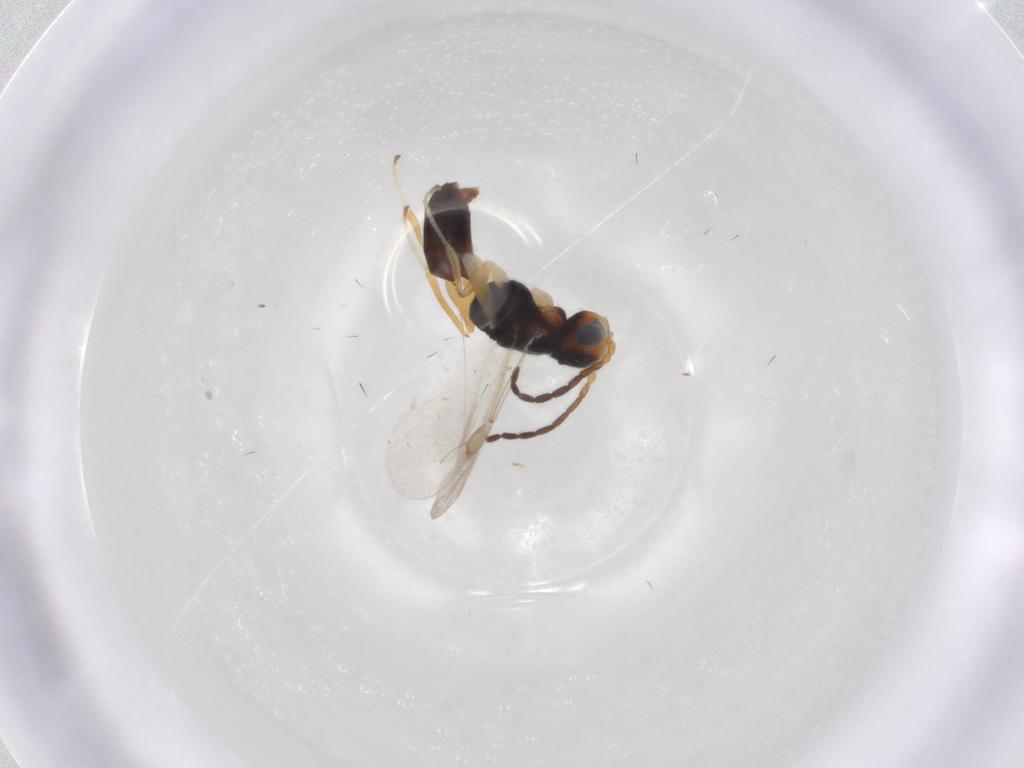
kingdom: Animalia
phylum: Arthropoda
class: Insecta
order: Hymenoptera
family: Dryinidae
